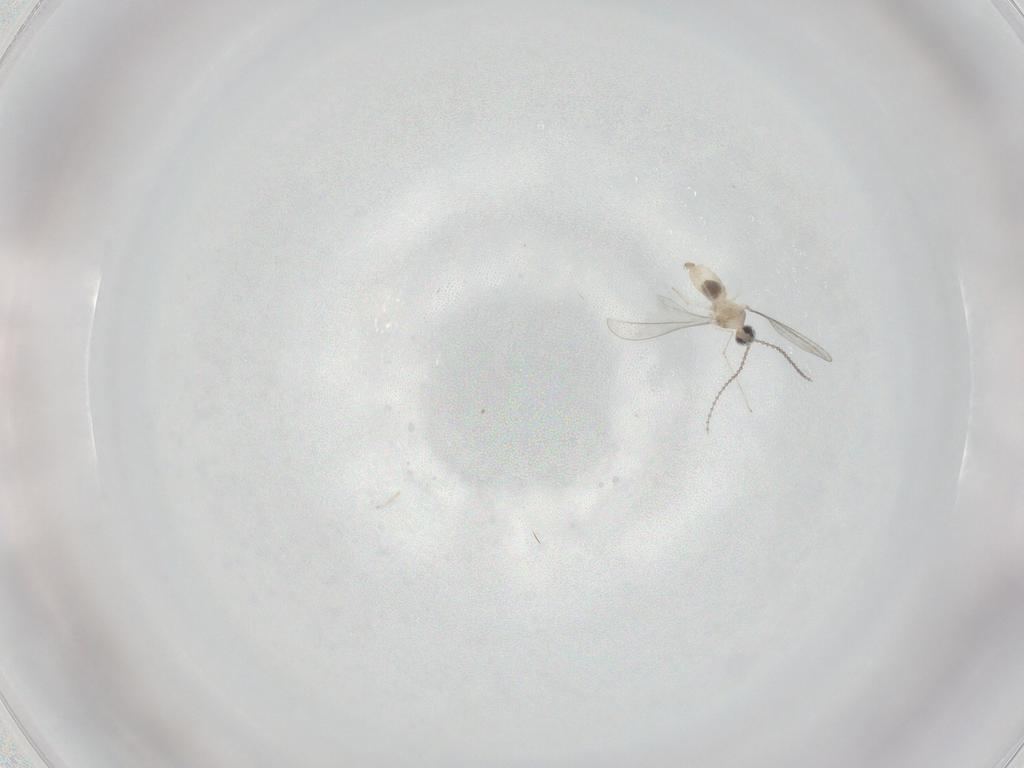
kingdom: Animalia
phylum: Arthropoda
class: Insecta
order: Diptera
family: Cecidomyiidae
